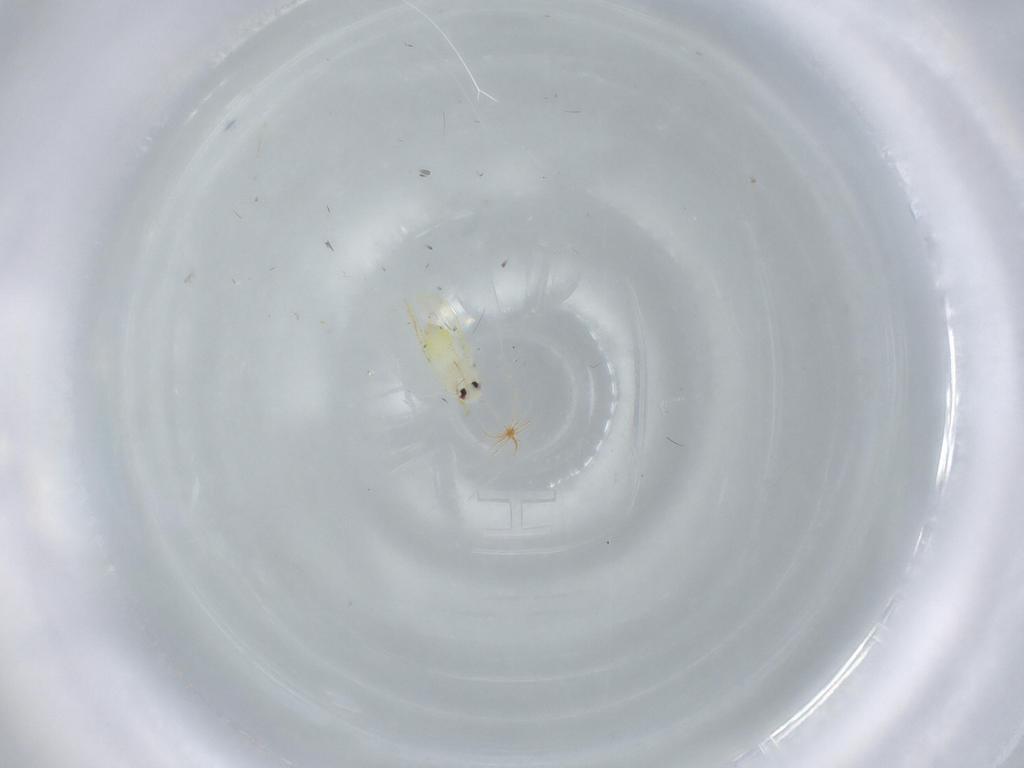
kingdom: Animalia
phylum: Arthropoda
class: Insecta
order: Hemiptera
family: Aleyrodidae
